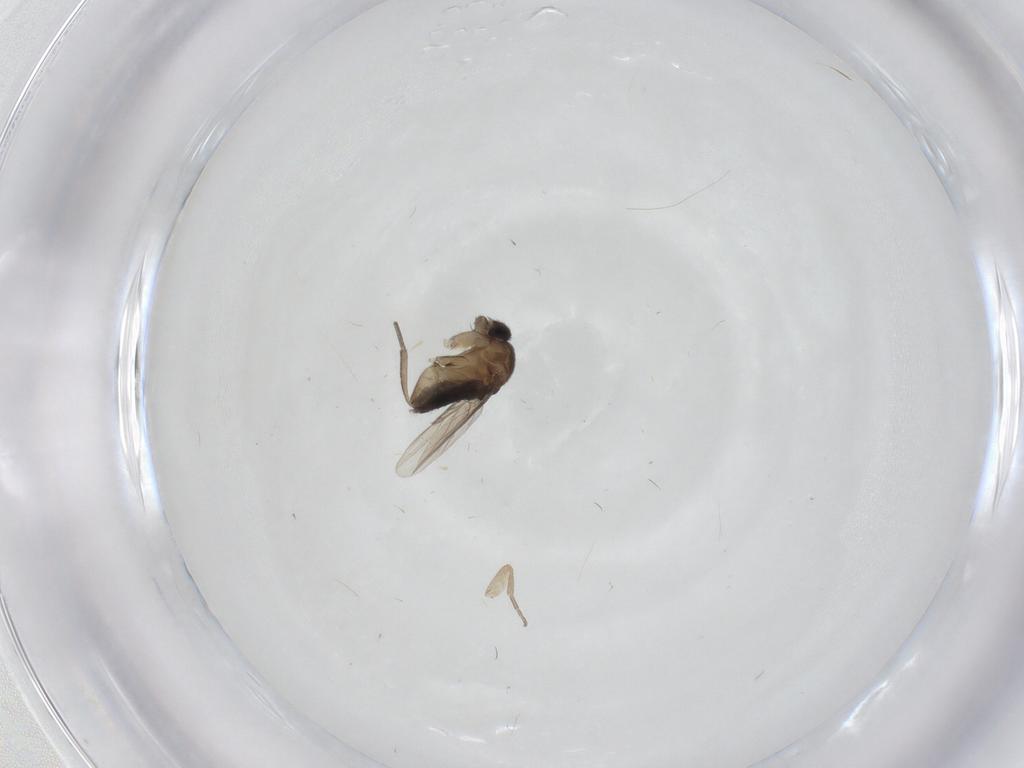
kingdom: Animalia
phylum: Arthropoda
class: Insecta
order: Diptera
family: Phoridae
